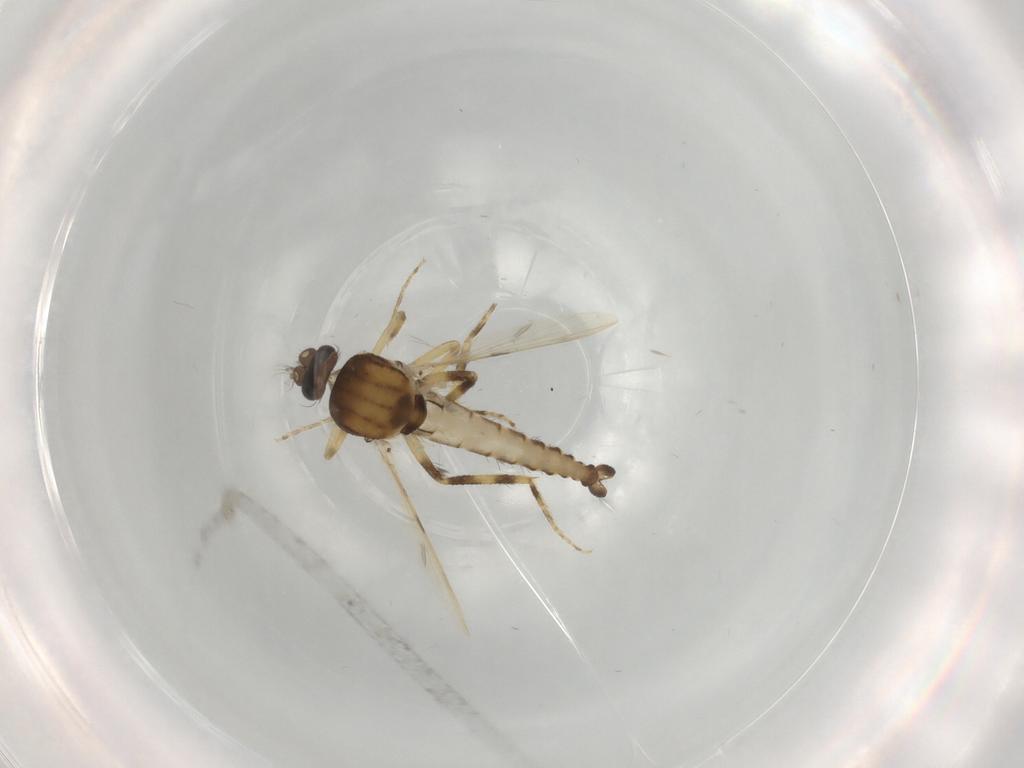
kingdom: Animalia
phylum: Arthropoda
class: Insecta
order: Diptera
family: Ceratopogonidae
